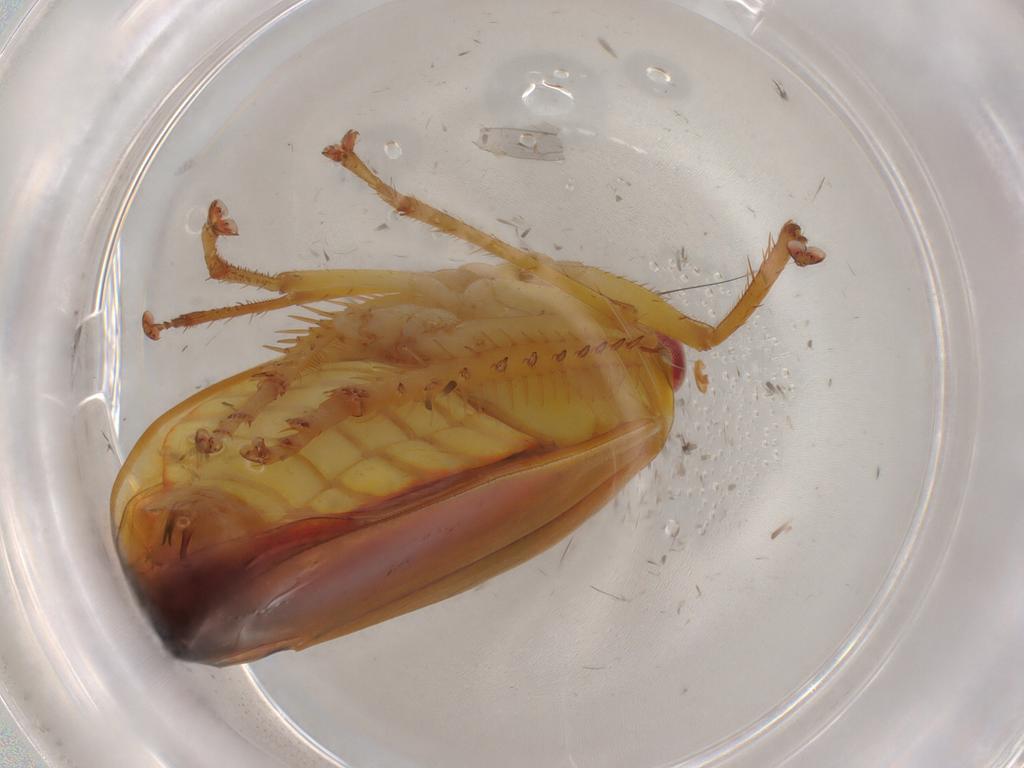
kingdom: Animalia
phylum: Arthropoda
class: Insecta
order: Hemiptera
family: Cicadellidae
